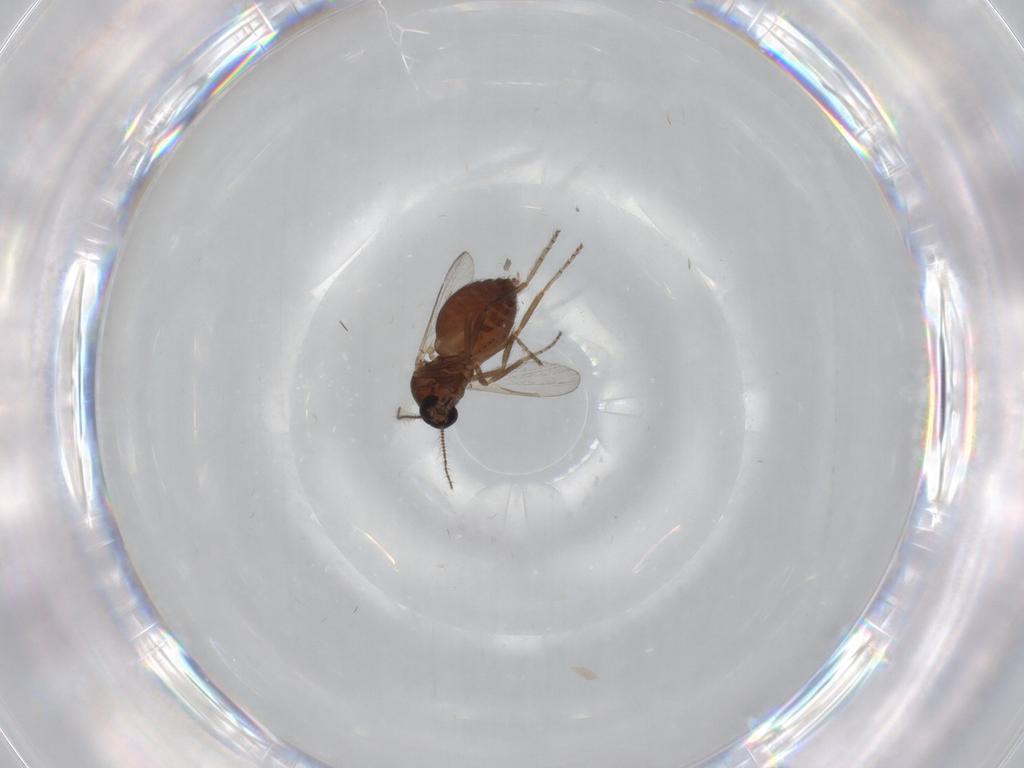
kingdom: Animalia
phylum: Arthropoda
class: Insecta
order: Diptera
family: Ceratopogonidae
